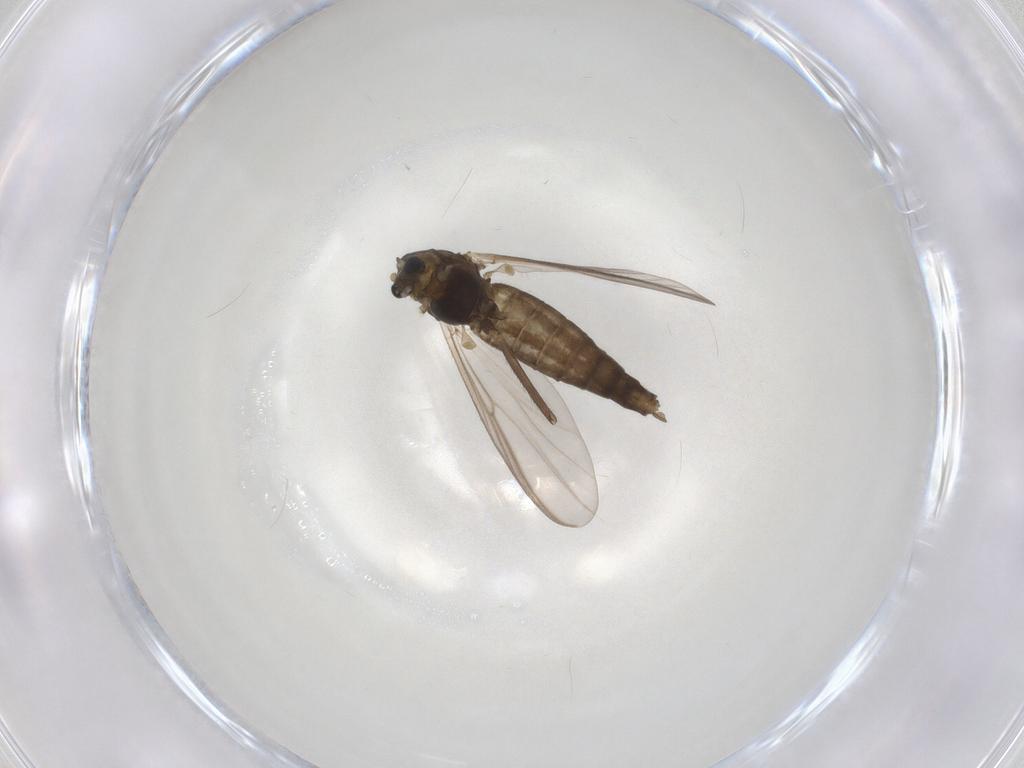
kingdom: Animalia
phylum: Arthropoda
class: Insecta
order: Diptera
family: Chironomidae
